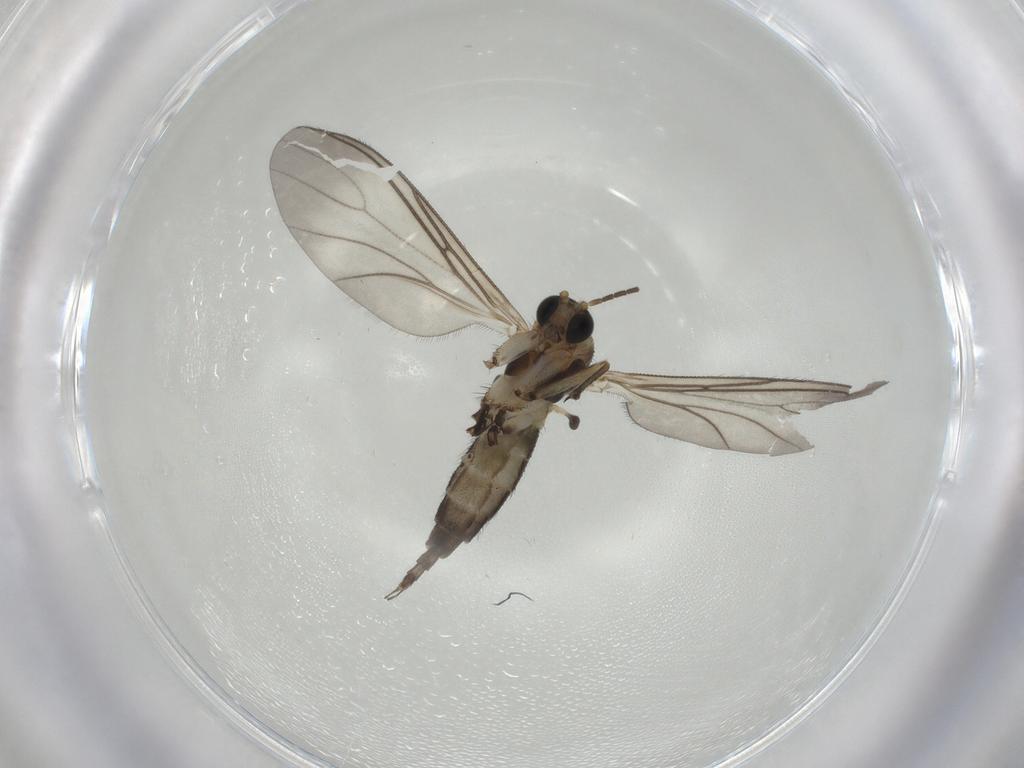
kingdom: Animalia
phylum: Arthropoda
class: Insecta
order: Diptera
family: Sciaridae
